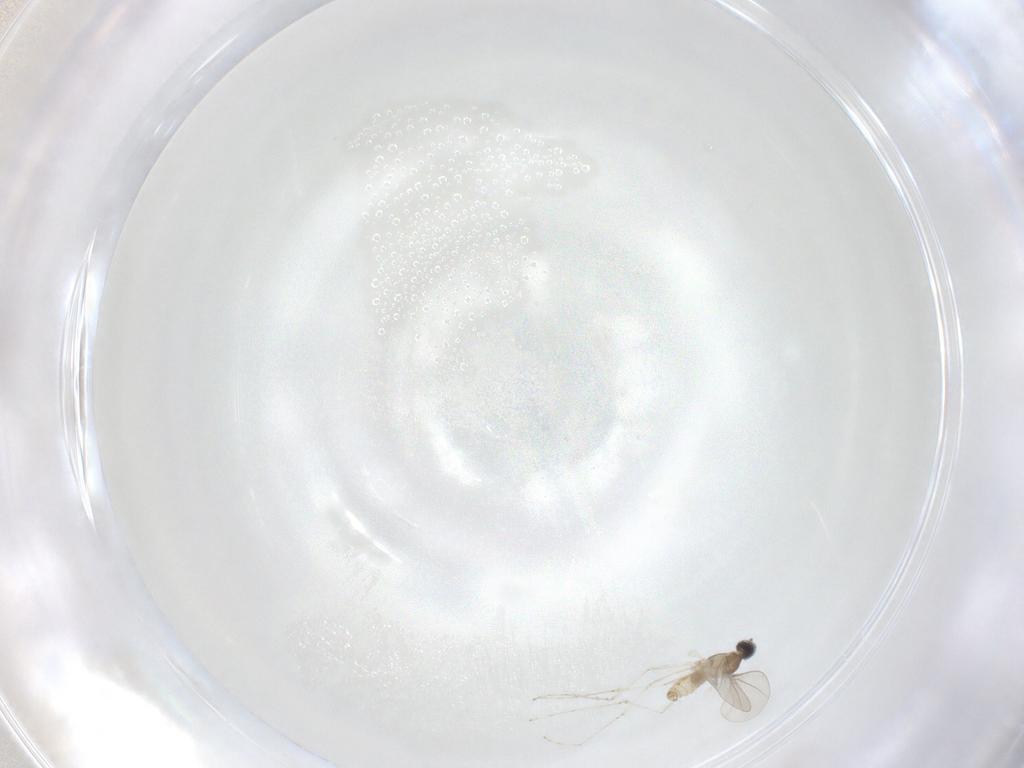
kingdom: Animalia
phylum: Arthropoda
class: Insecta
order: Diptera
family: Cecidomyiidae
